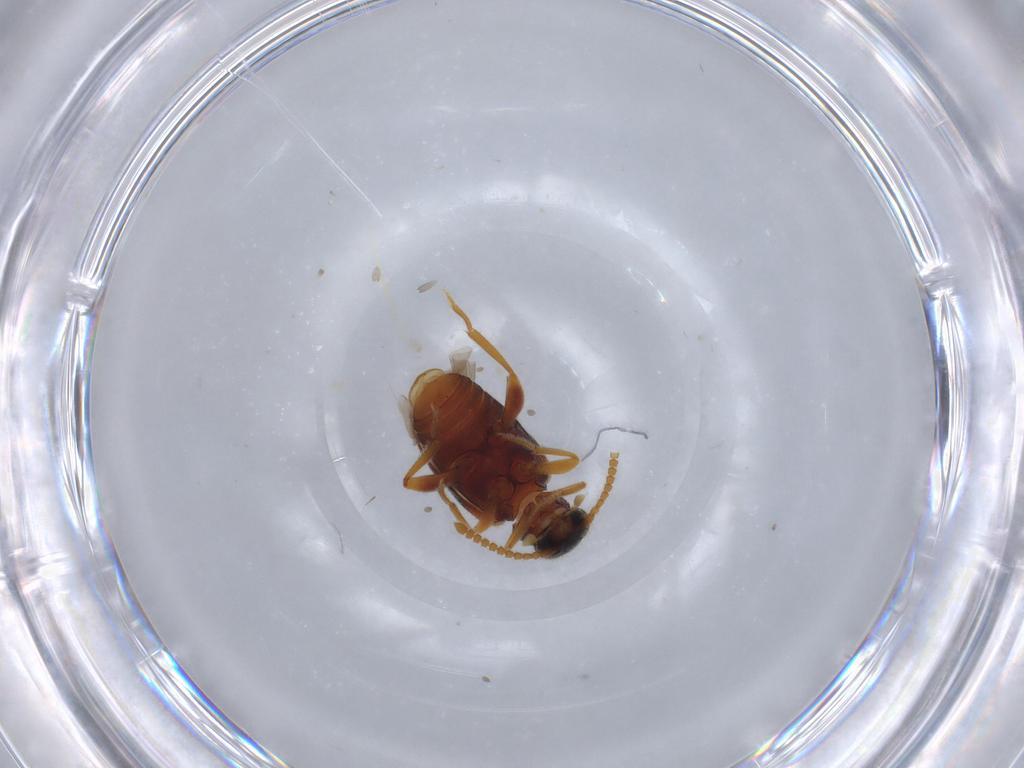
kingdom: Animalia
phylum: Arthropoda
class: Insecta
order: Coleoptera
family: Aderidae
